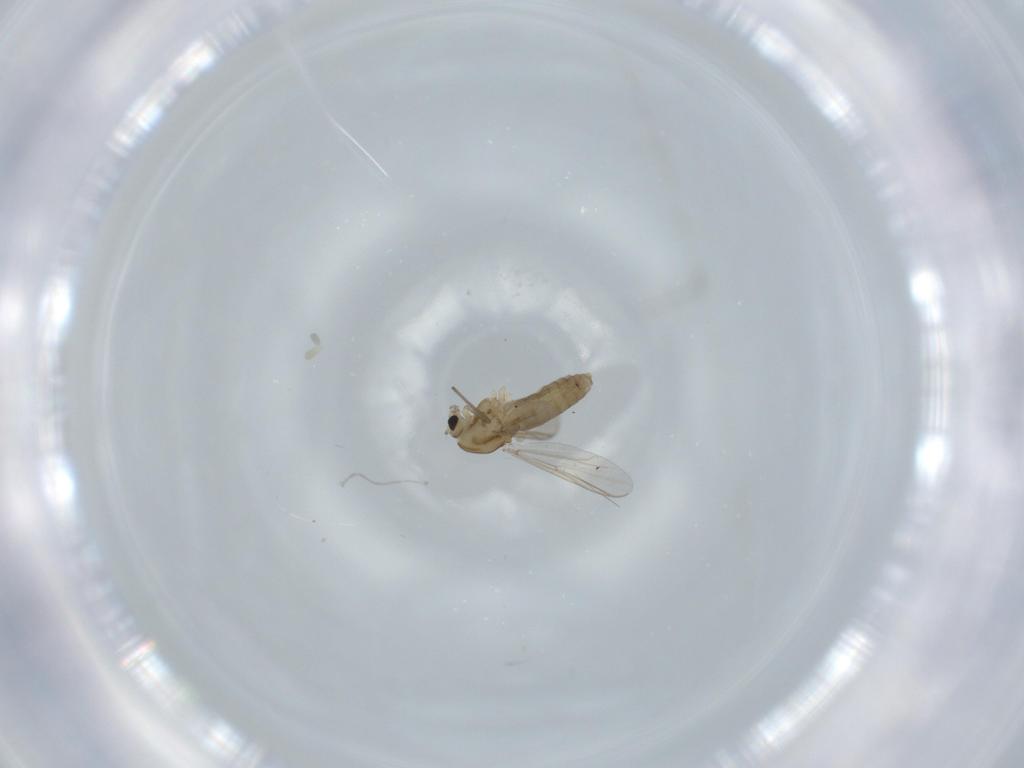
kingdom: Animalia
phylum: Arthropoda
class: Insecta
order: Diptera
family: Chironomidae
